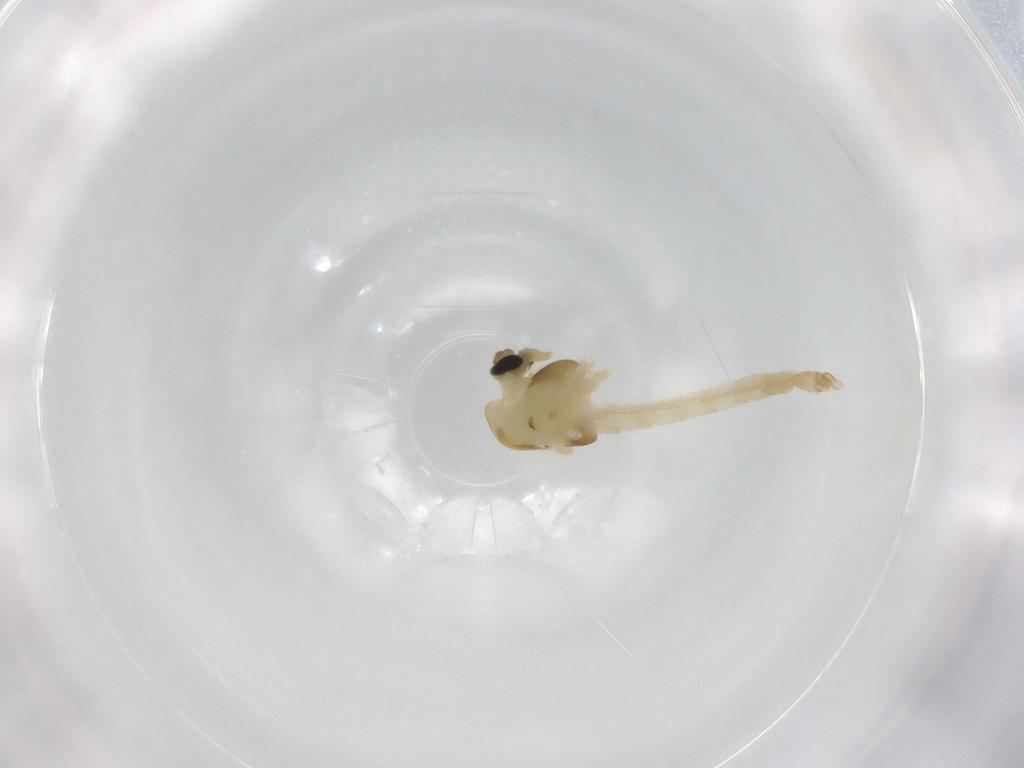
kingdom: Animalia
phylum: Arthropoda
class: Insecta
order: Diptera
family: Chironomidae
